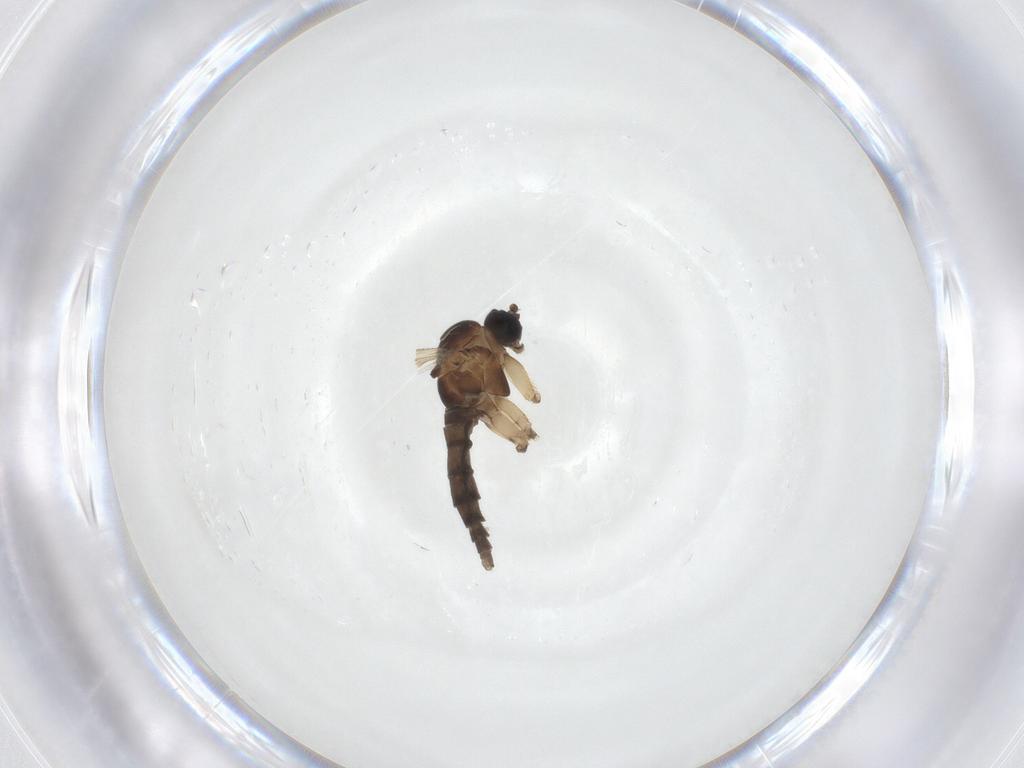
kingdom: Animalia
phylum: Arthropoda
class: Insecta
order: Diptera
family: Sciaridae
